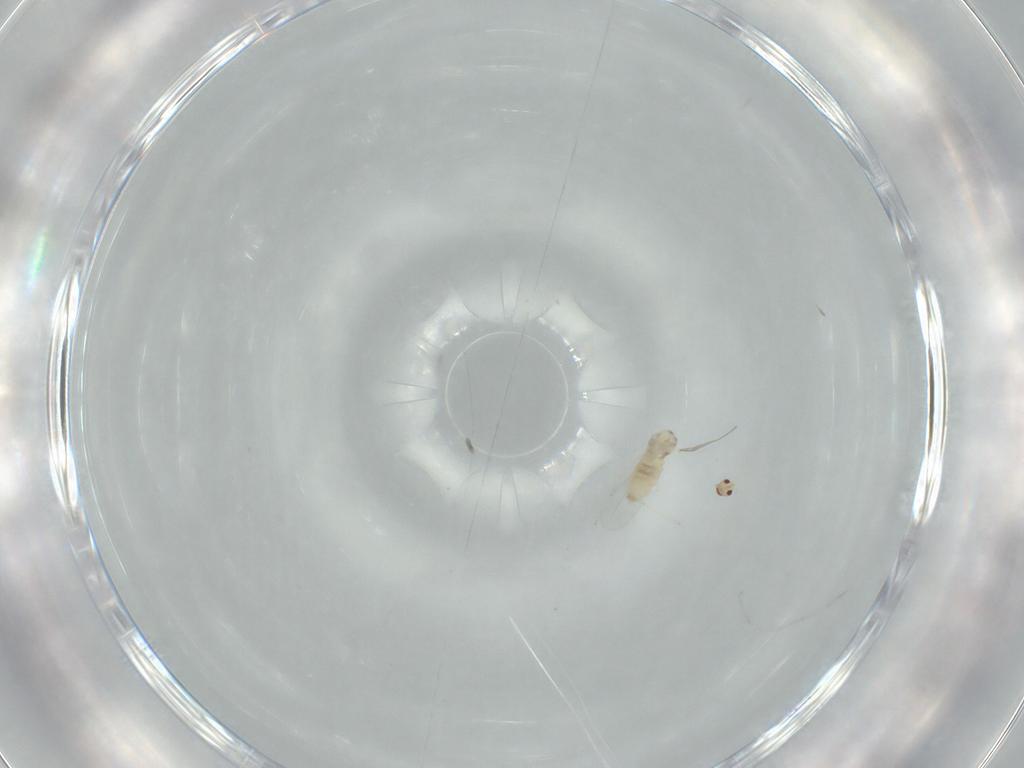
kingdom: Animalia
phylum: Arthropoda
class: Insecta
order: Diptera
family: Cecidomyiidae
